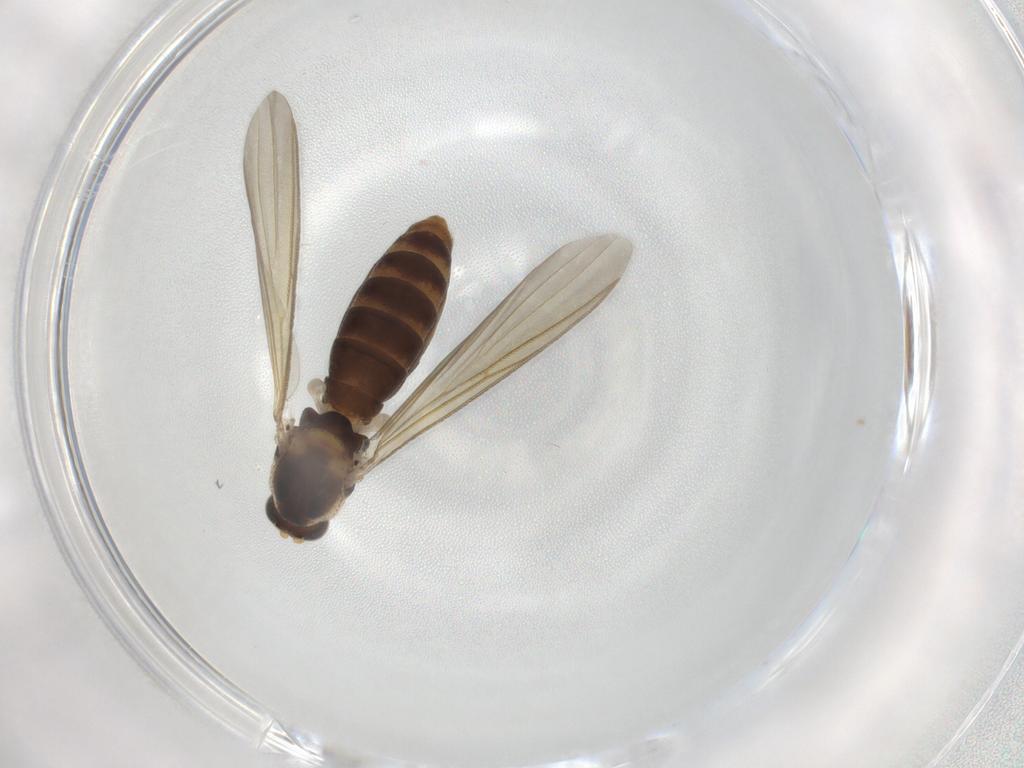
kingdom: Animalia
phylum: Arthropoda
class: Insecta
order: Diptera
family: Mycetophilidae
